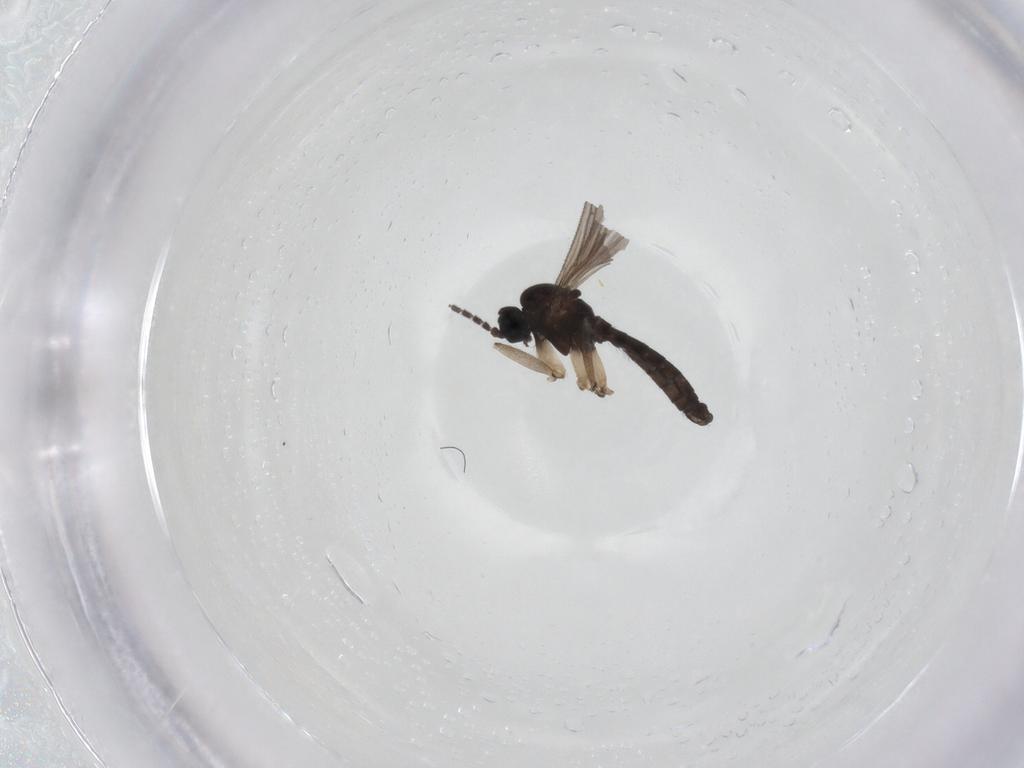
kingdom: Animalia
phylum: Arthropoda
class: Insecta
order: Diptera
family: Sciaridae
